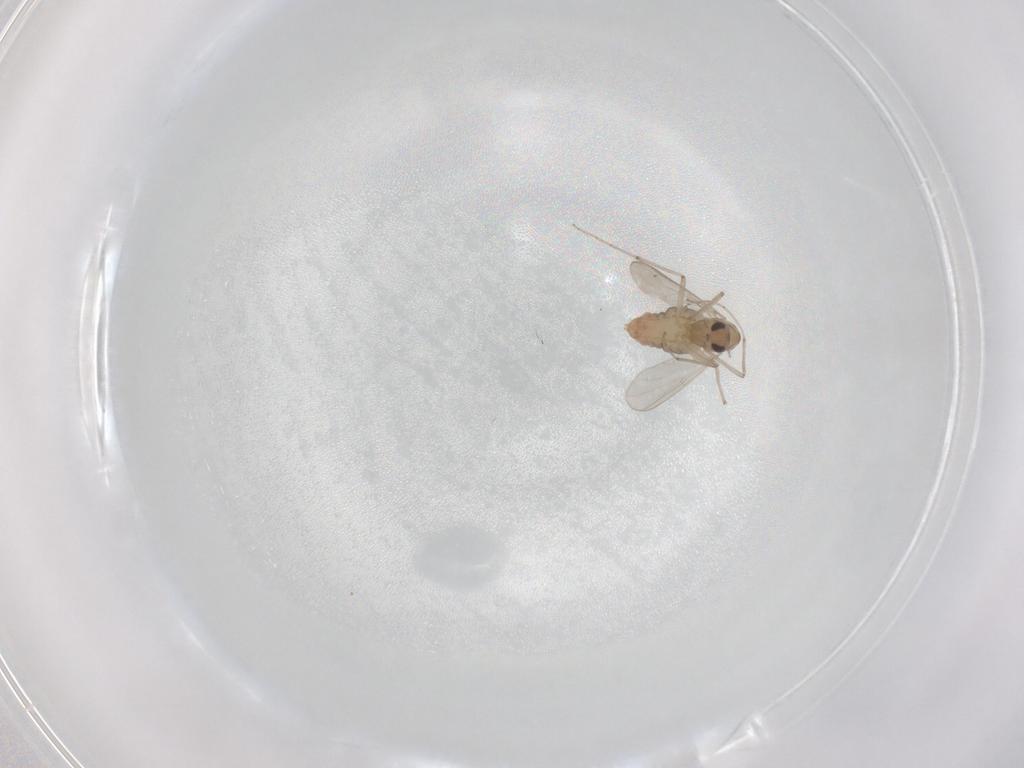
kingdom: Animalia
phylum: Arthropoda
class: Insecta
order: Diptera
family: Chironomidae
